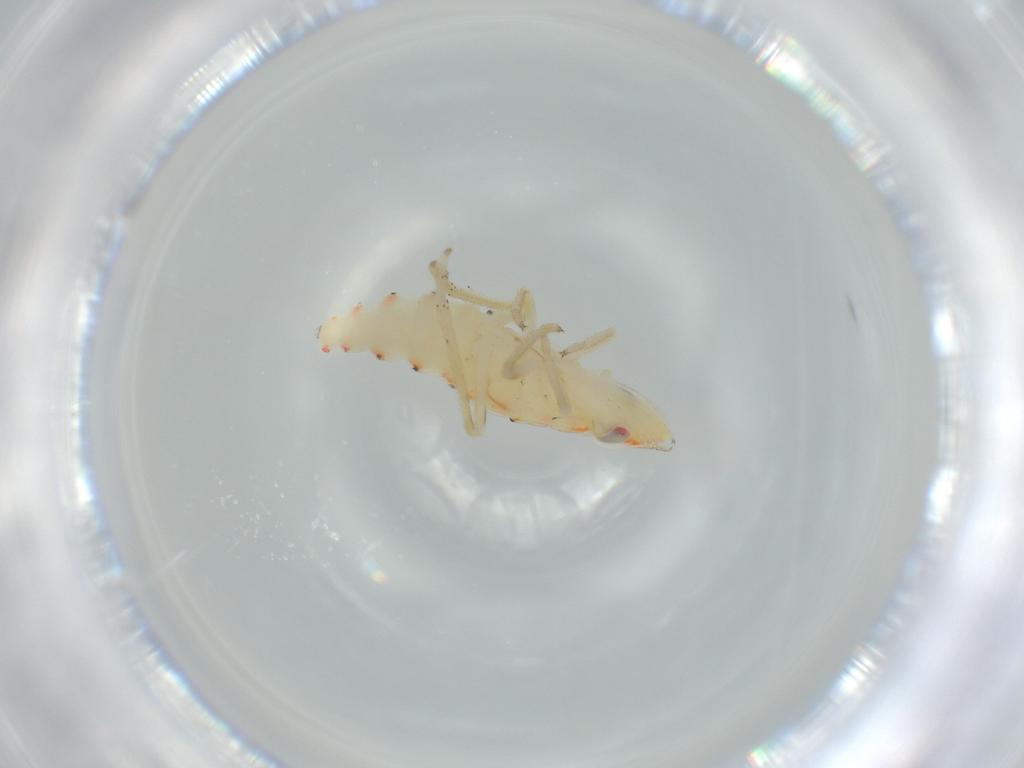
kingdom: Animalia
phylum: Arthropoda
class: Insecta
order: Hemiptera
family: Tropiduchidae
